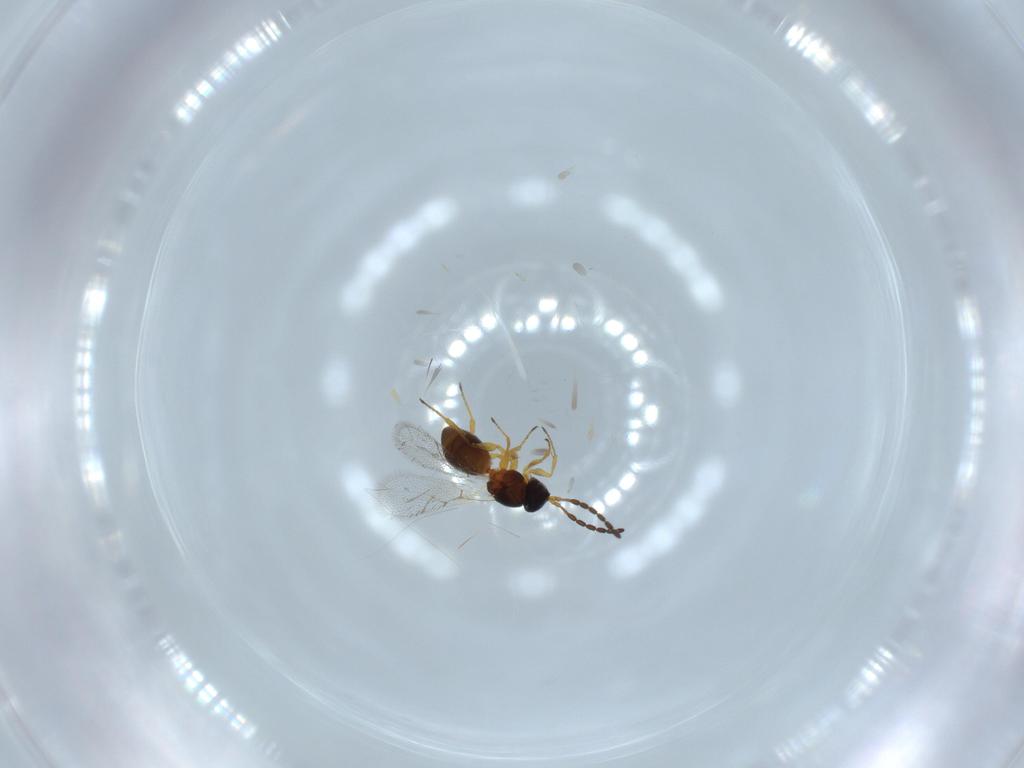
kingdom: Animalia
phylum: Arthropoda
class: Insecta
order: Hymenoptera
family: Figitidae
